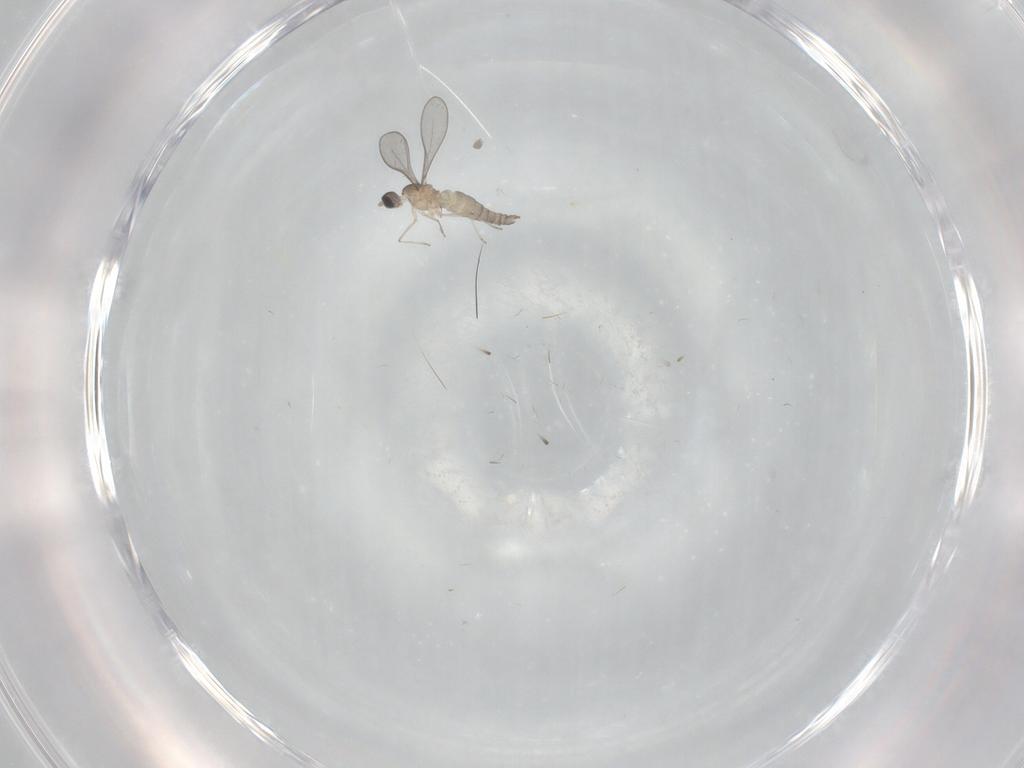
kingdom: Animalia
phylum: Arthropoda
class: Insecta
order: Diptera
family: Cecidomyiidae
